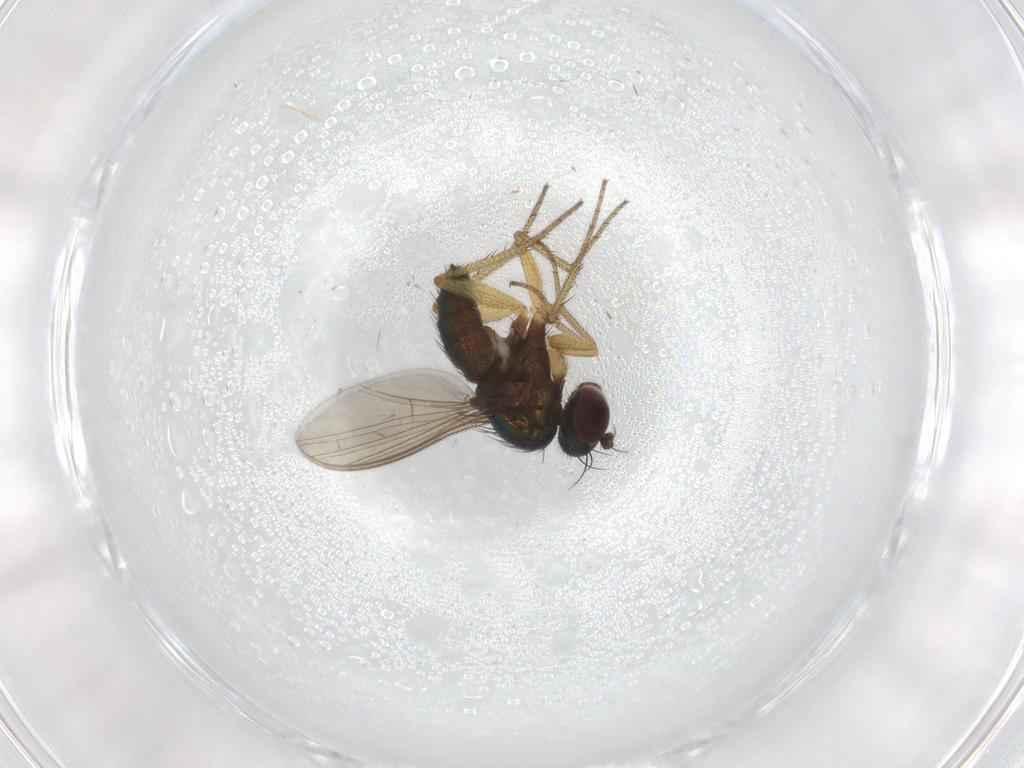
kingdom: Animalia
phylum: Arthropoda
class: Insecta
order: Diptera
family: Dolichopodidae
